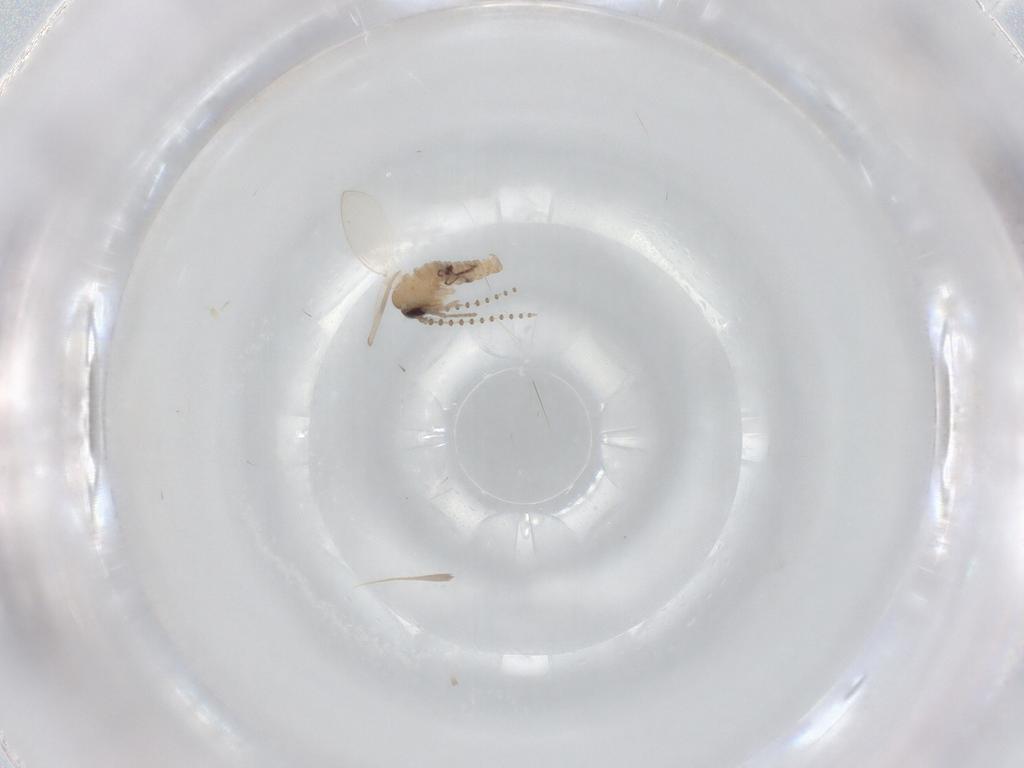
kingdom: Animalia
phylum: Arthropoda
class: Insecta
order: Diptera
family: Psychodidae
